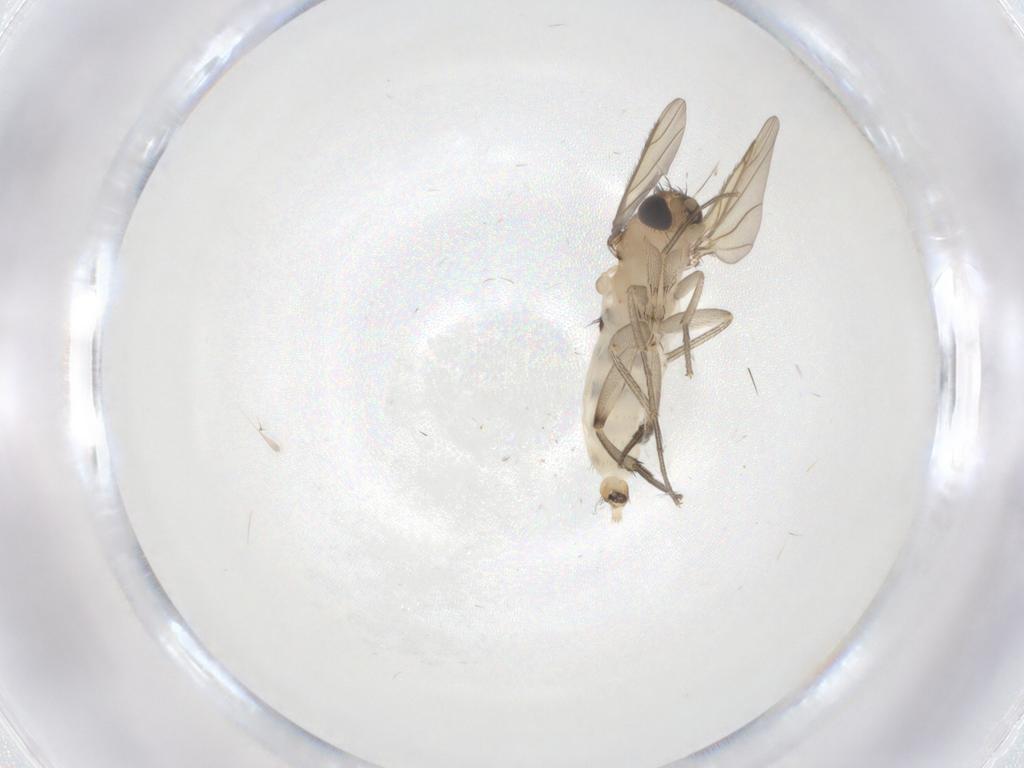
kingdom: Animalia
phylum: Arthropoda
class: Insecta
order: Diptera
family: Phoridae
